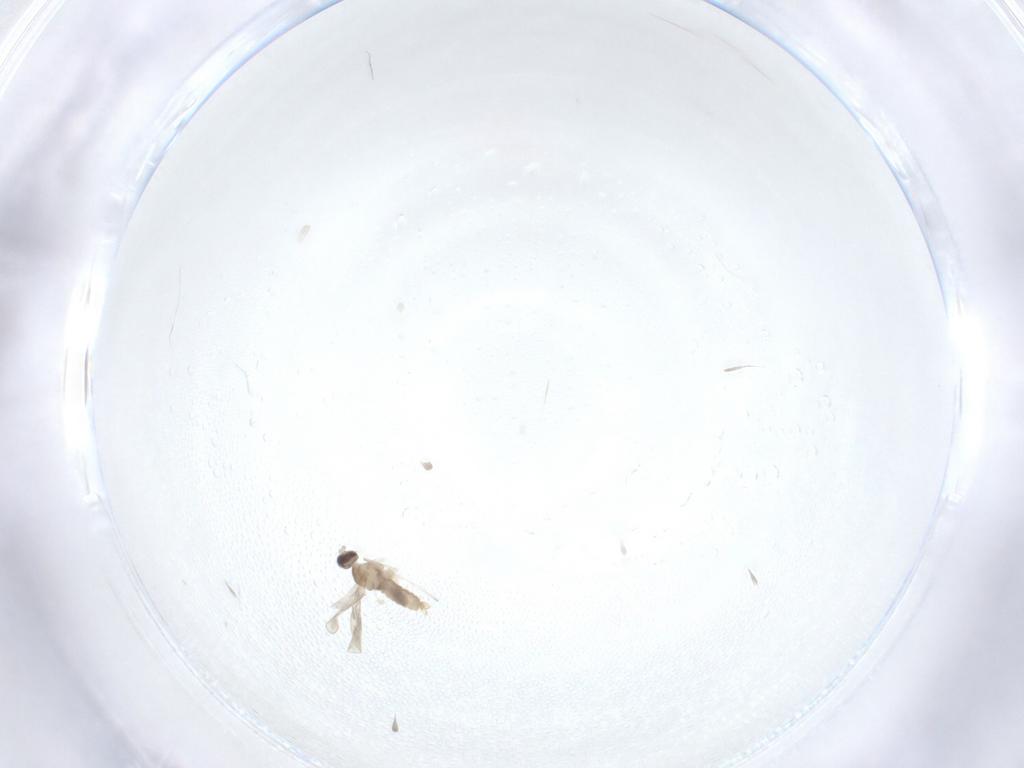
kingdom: Animalia
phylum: Arthropoda
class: Insecta
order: Diptera
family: Cecidomyiidae
